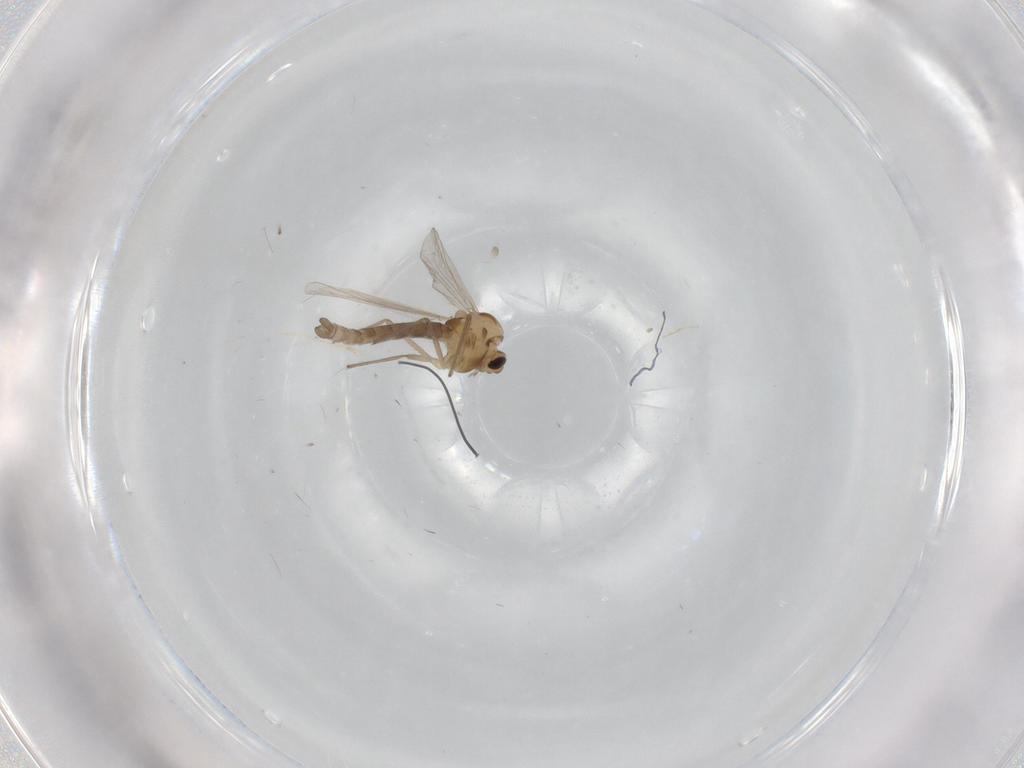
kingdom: Animalia
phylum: Arthropoda
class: Insecta
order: Diptera
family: Chironomidae
